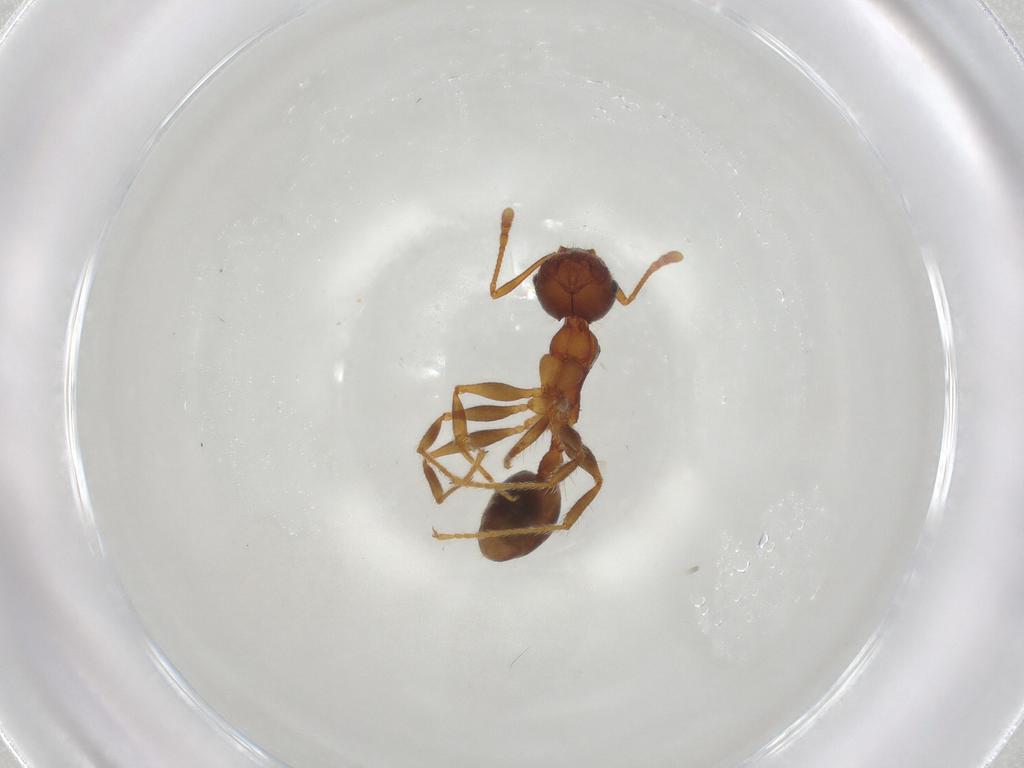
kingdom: Animalia
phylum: Arthropoda
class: Insecta
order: Hymenoptera
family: Formicidae
